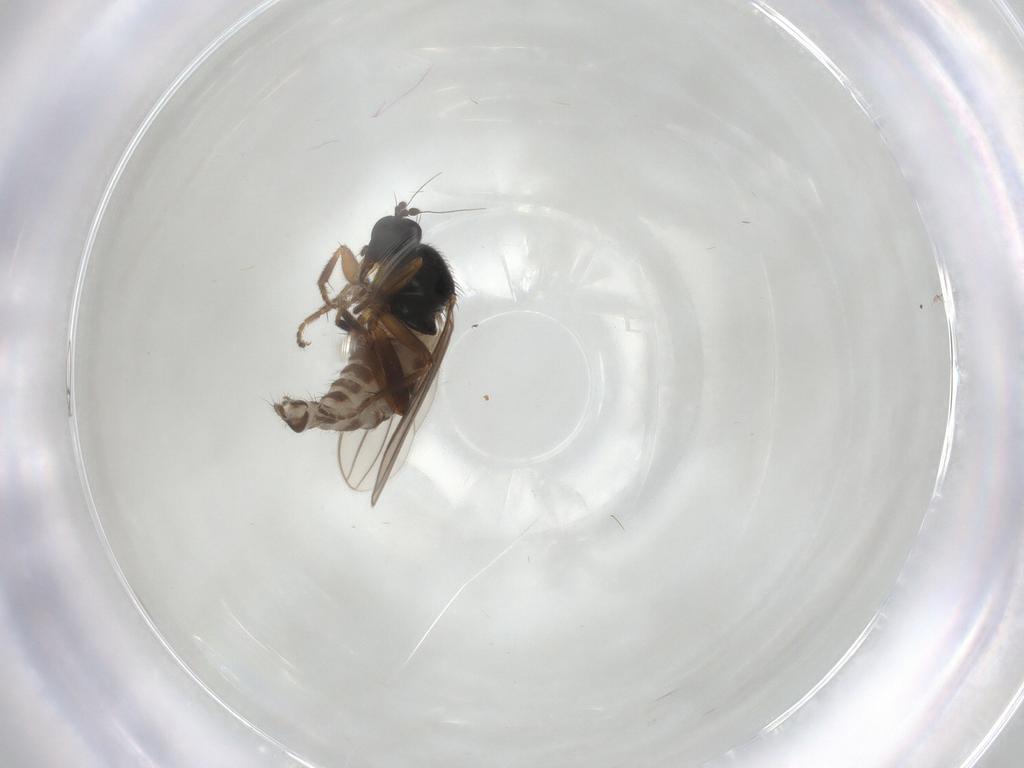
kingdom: Animalia
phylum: Arthropoda
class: Insecta
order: Diptera
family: Hybotidae
